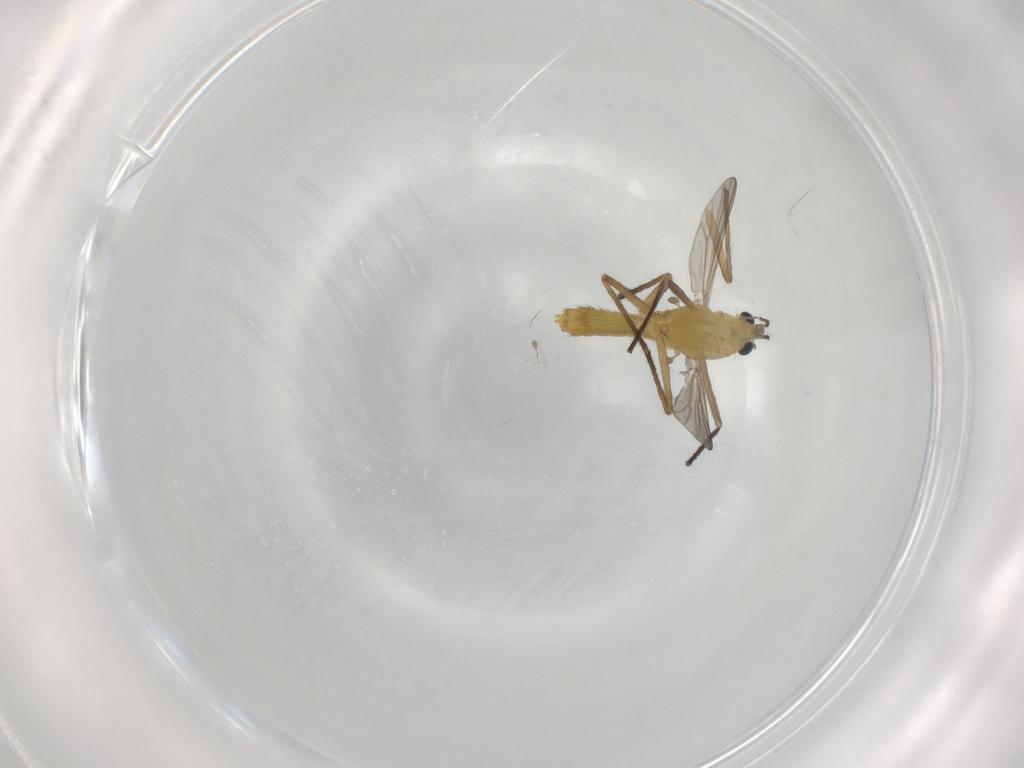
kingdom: Animalia
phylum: Arthropoda
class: Insecta
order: Diptera
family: Chironomidae
